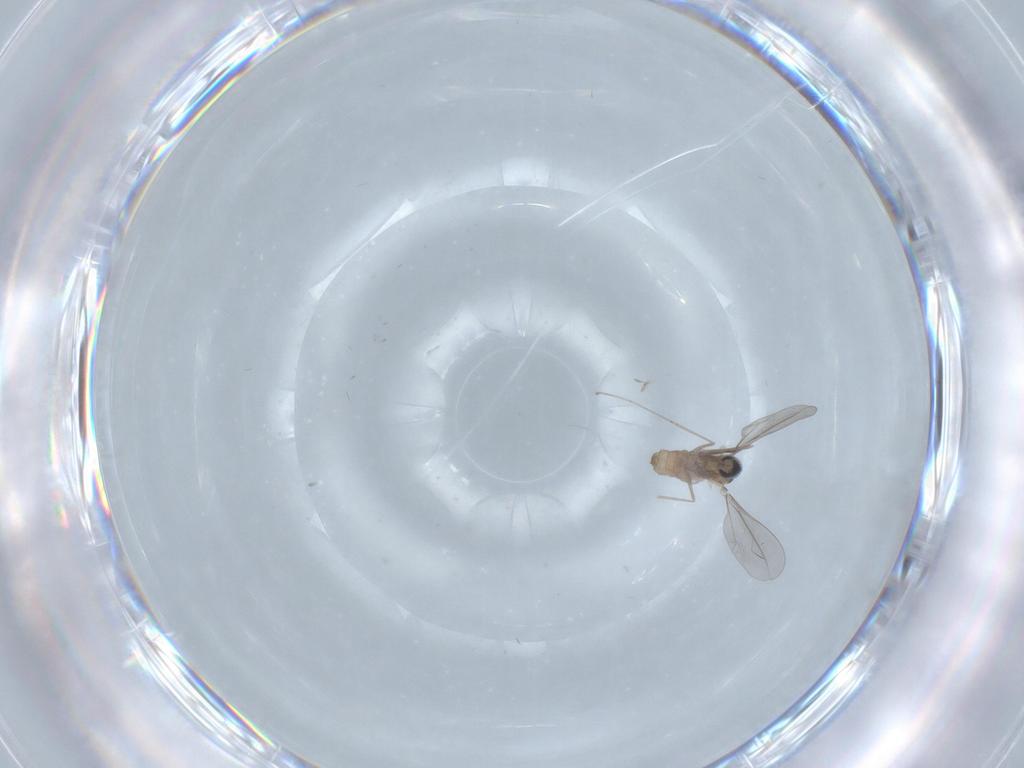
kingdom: Animalia
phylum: Arthropoda
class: Insecta
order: Diptera
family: Cecidomyiidae
